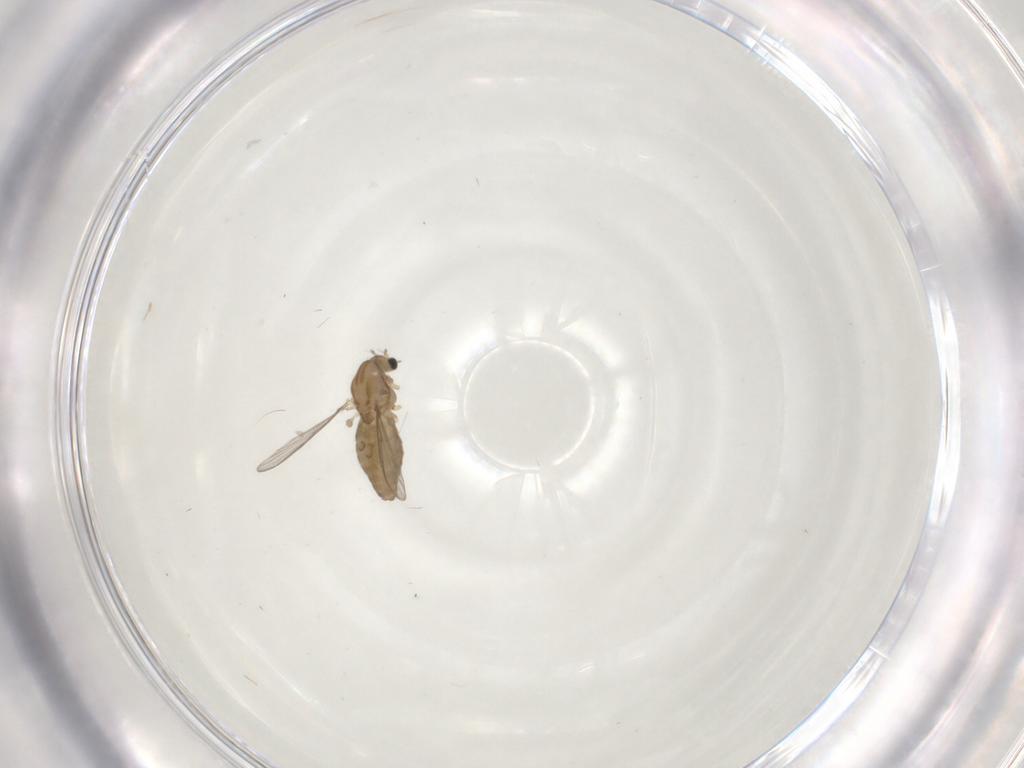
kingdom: Animalia
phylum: Arthropoda
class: Insecta
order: Diptera
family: Chironomidae
